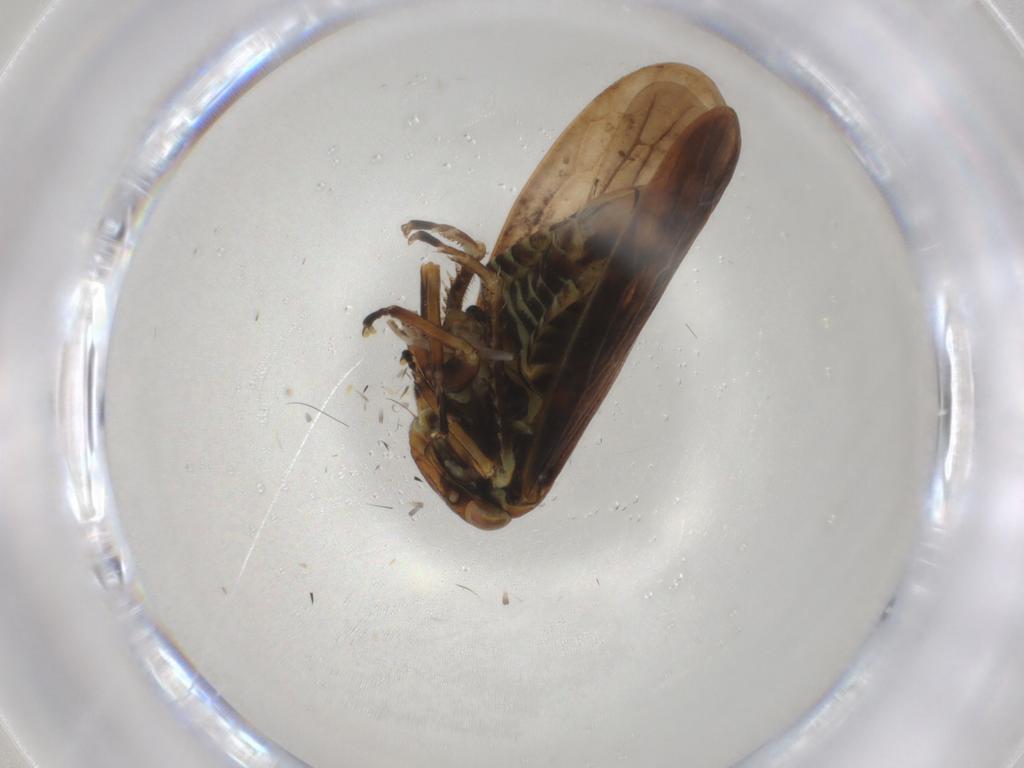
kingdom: Animalia
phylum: Arthropoda
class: Insecta
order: Hemiptera
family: Cicadellidae
